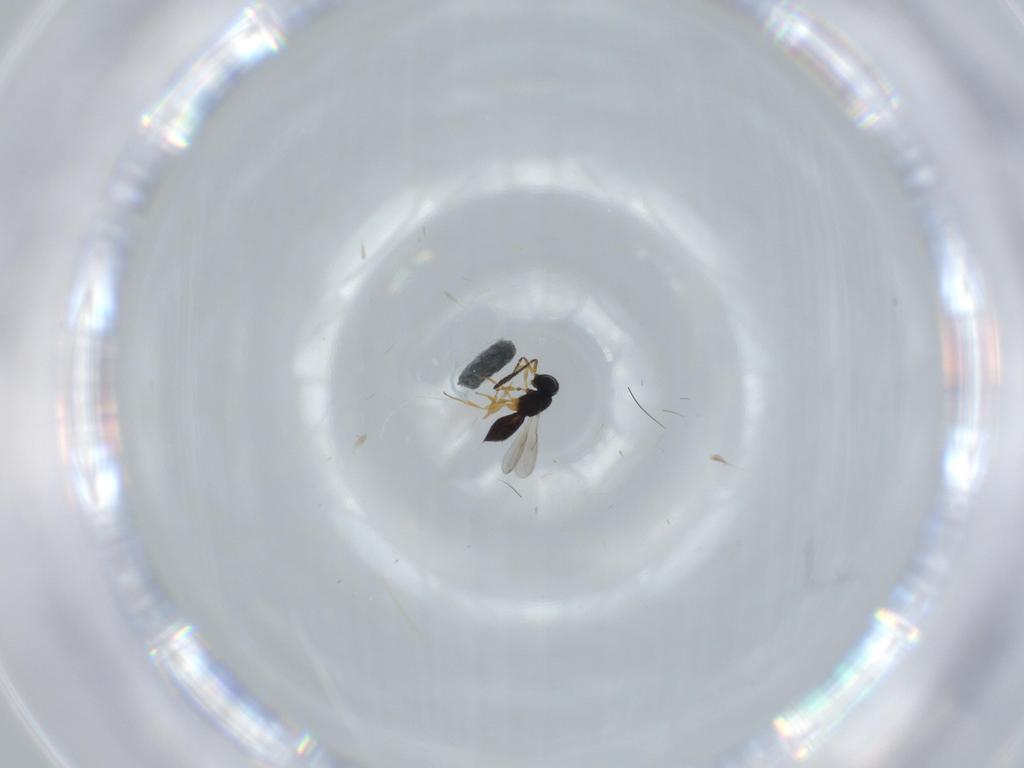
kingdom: Animalia
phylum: Arthropoda
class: Insecta
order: Hymenoptera
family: Scelionidae
